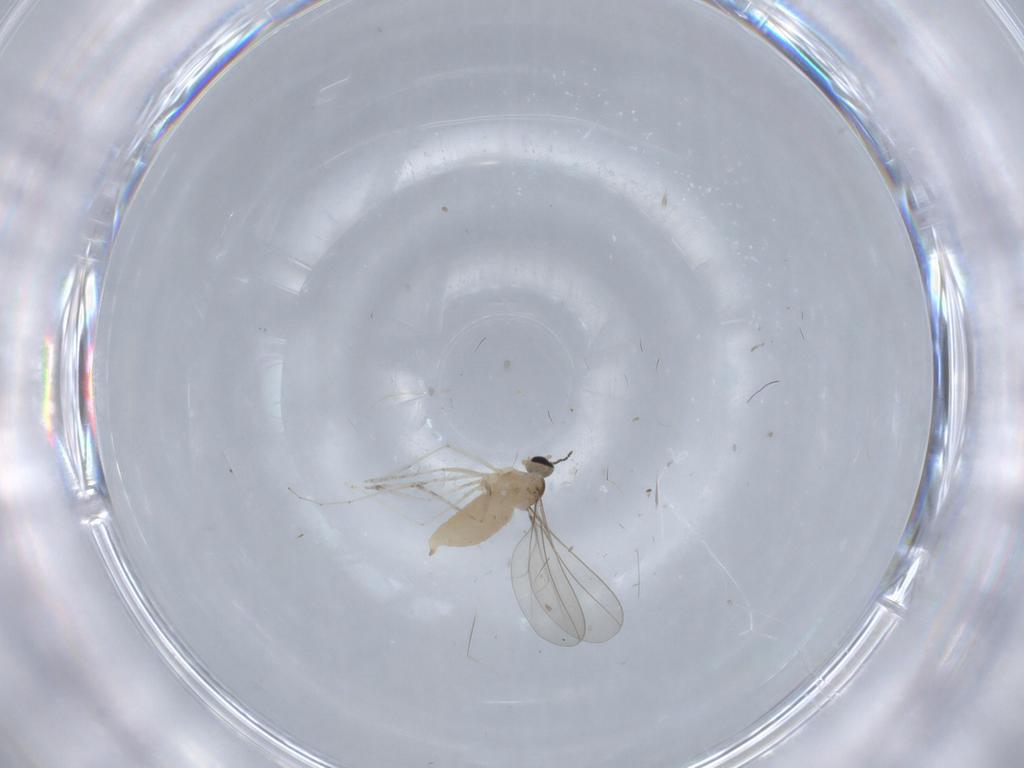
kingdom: Animalia
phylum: Arthropoda
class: Insecta
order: Diptera
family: Cecidomyiidae
